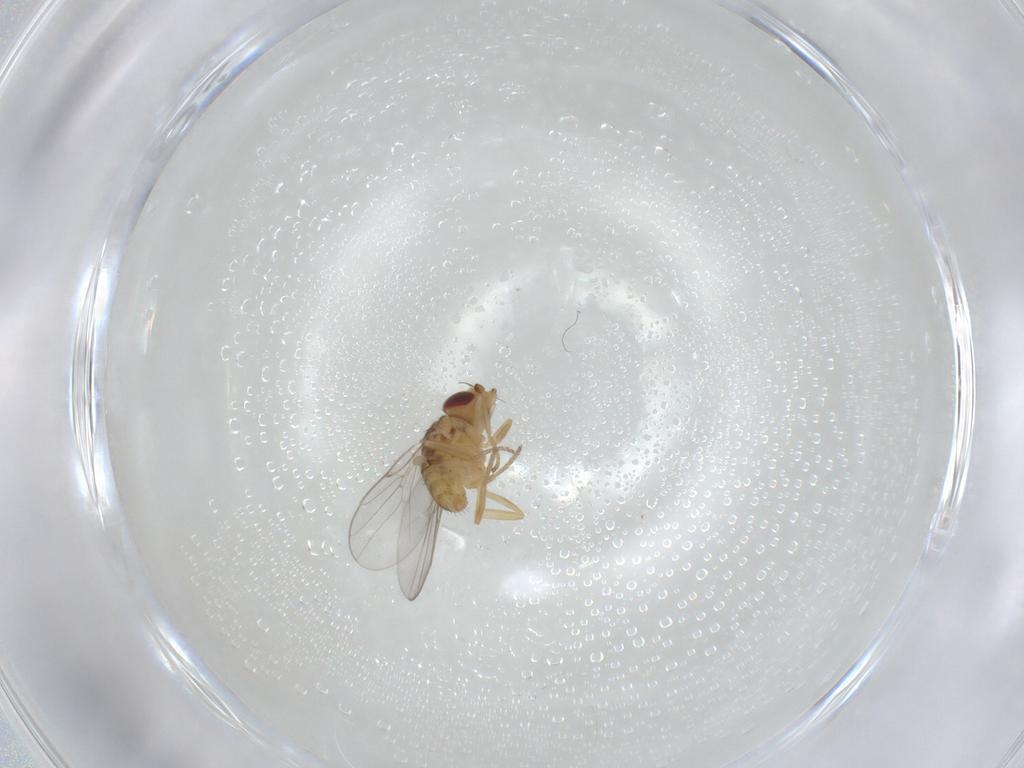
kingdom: Animalia
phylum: Arthropoda
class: Insecta
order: Diptera
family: Chloropidae
